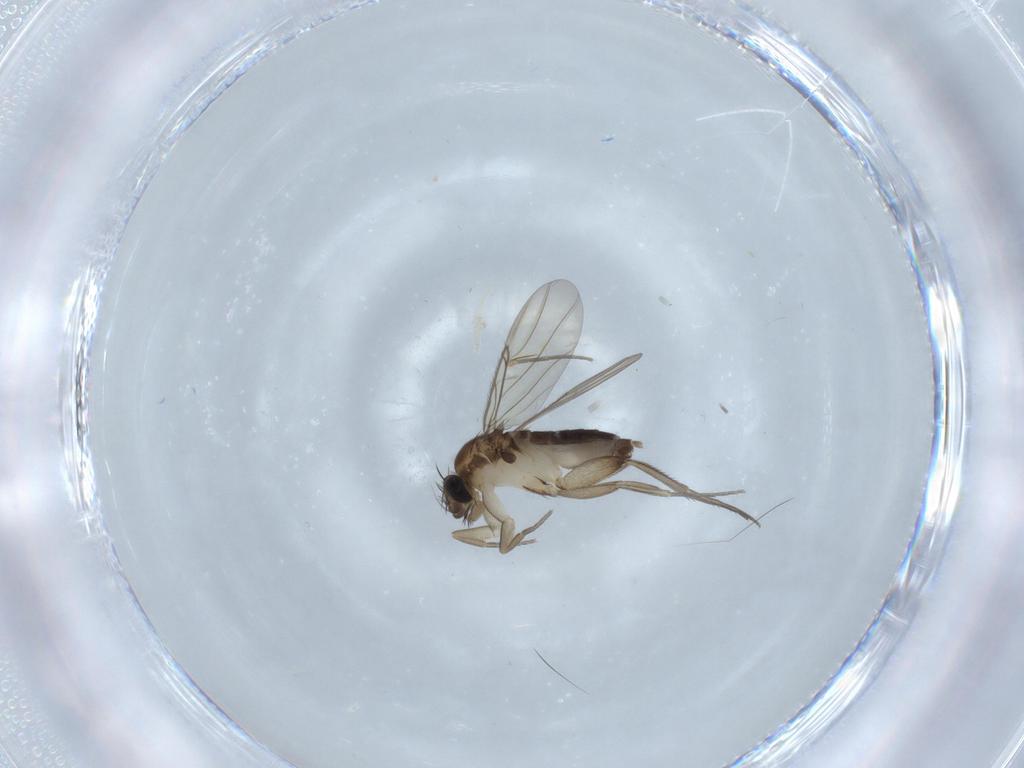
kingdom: Animalia
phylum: Arthropoda
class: Insecta
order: Diptera
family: Phoridae
